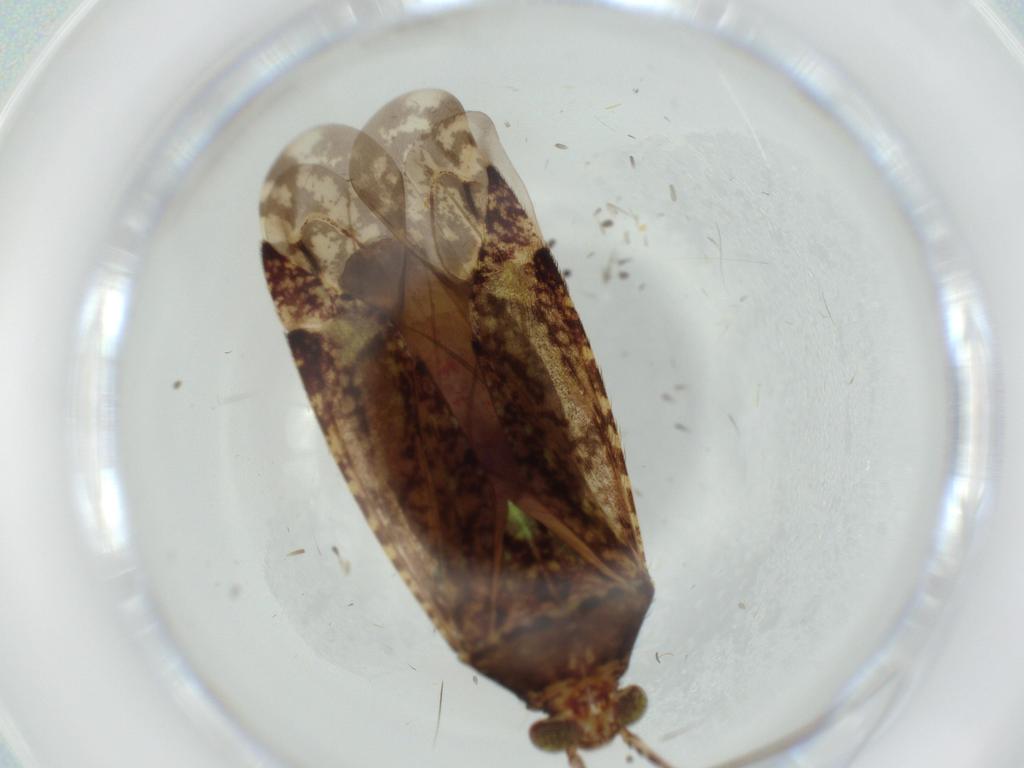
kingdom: Animalia
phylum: Arthropoda
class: Insecta
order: Hemiptera
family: Miridae
